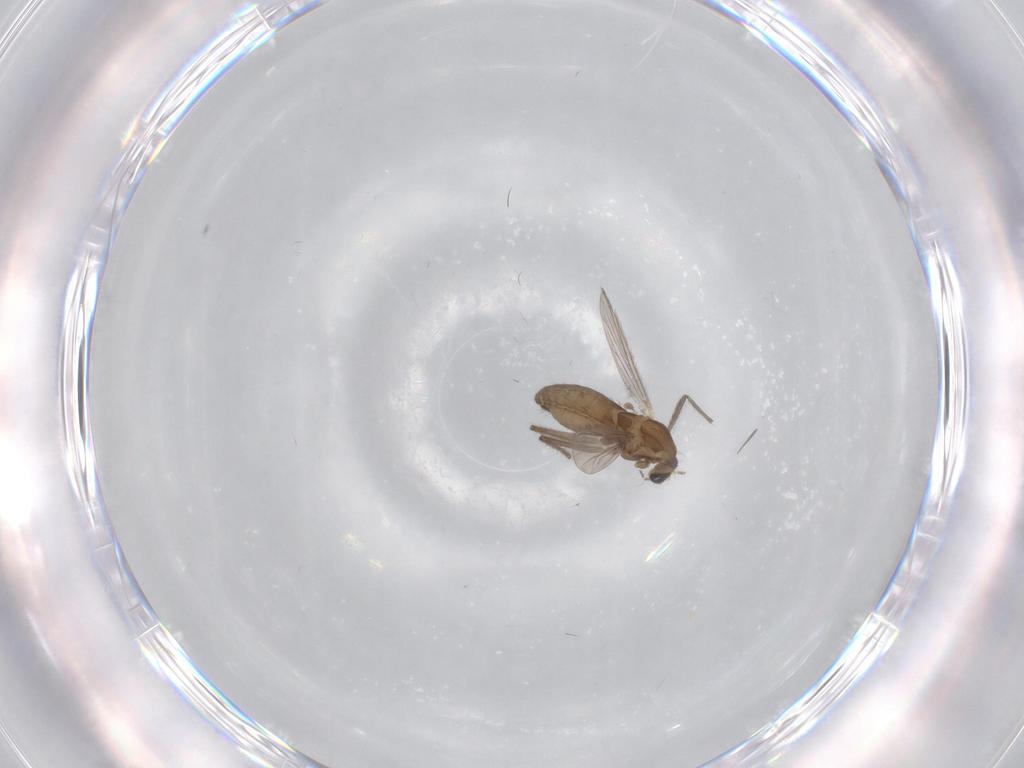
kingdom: Animalia
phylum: Arthropoda
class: Insecta
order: Diptera
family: Chironomidae
